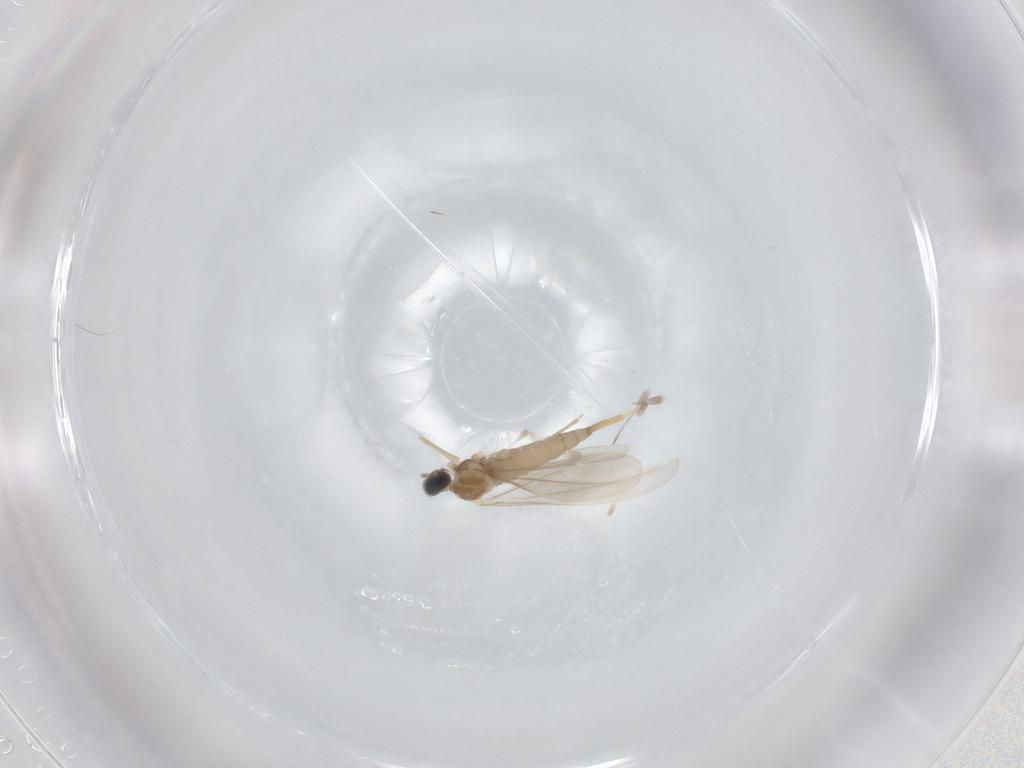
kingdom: Animalia
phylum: Arthropoda
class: Insecta
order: Diptera
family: Cecidomyiidae
